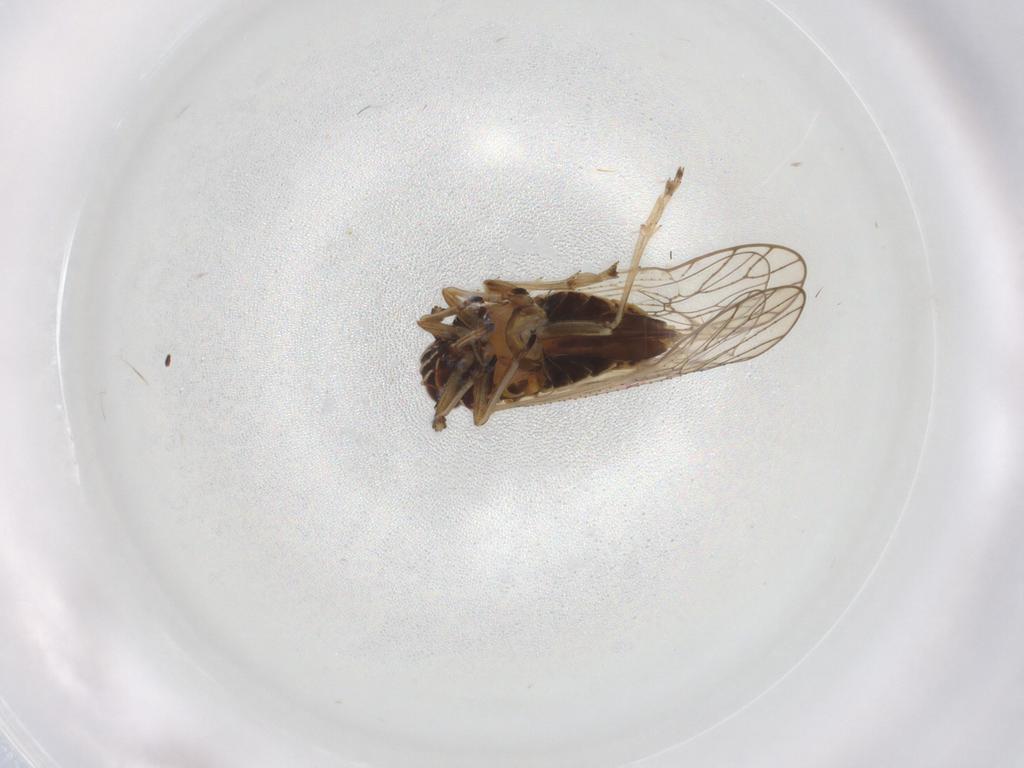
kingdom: Animalia
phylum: Arthropoda
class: Insecta
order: Hemiptera
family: Delphacidae
